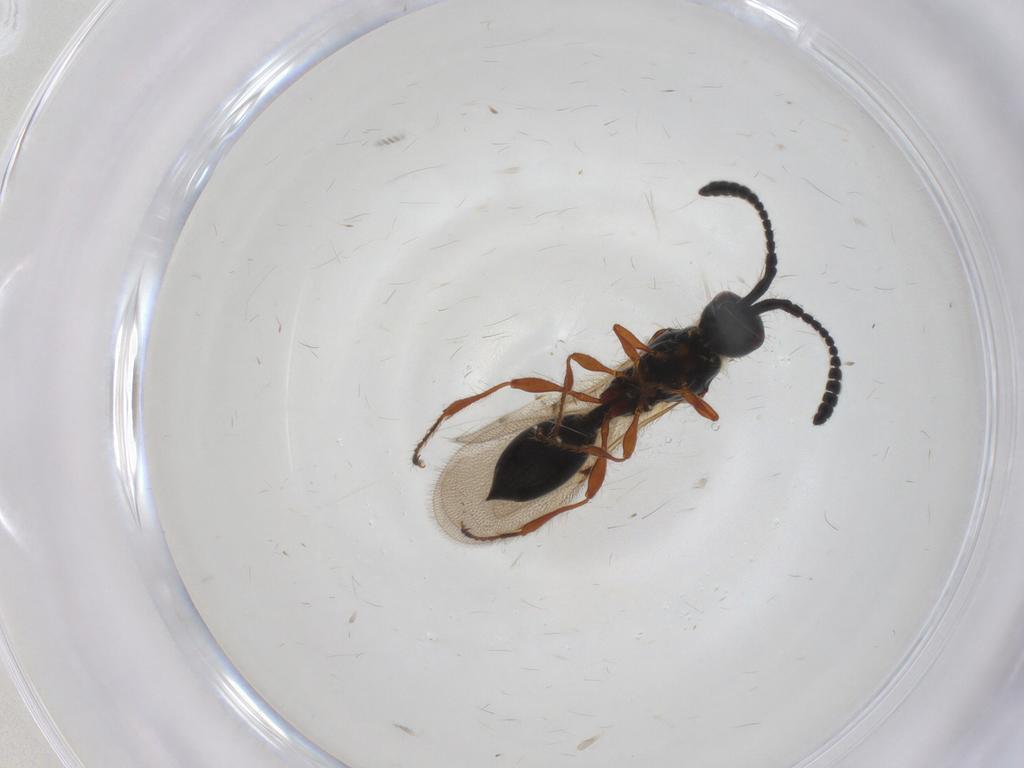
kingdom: Animalia
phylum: Arthropoda
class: Insecta
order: Hymenoptera
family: Diapriidae
